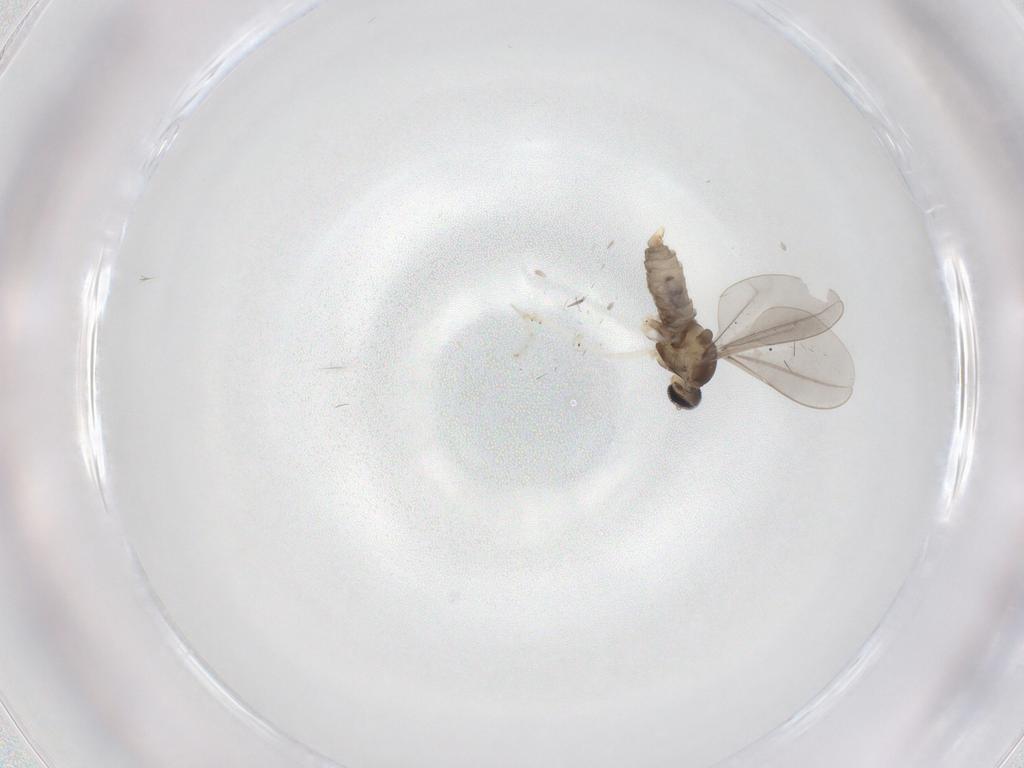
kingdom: Animalia
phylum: Arthropoda
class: Insecta
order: Diptera
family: Cecidomyiidae
